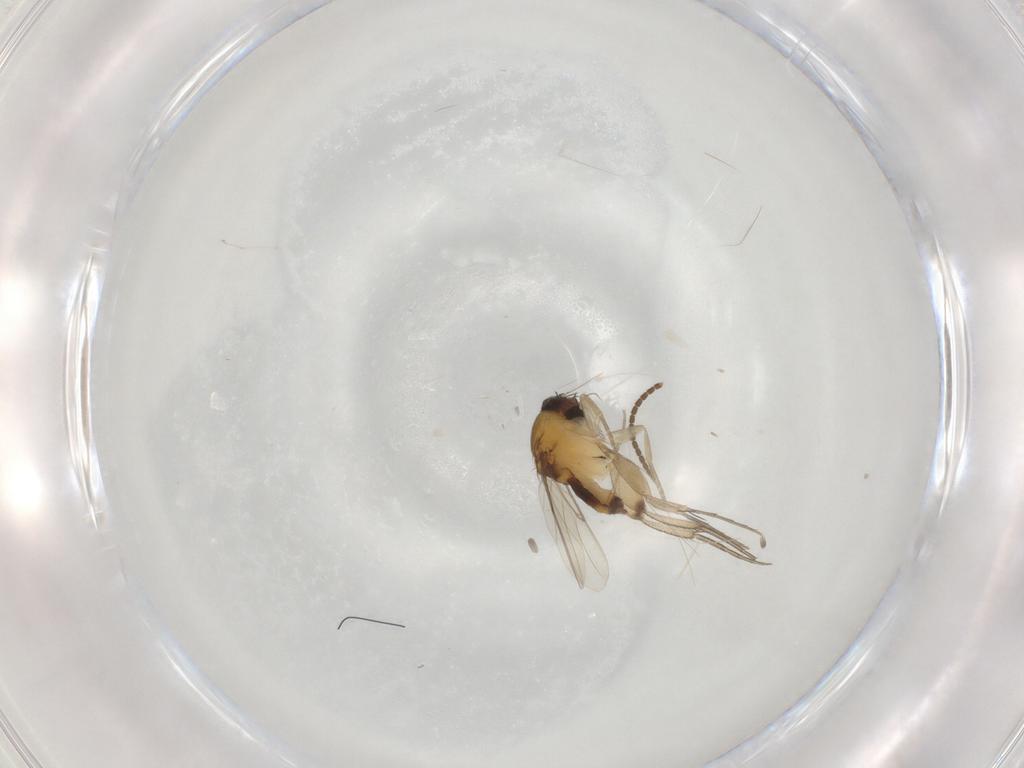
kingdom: Animalia
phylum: Arthropoda
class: Insecta
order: Diptera
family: Sciaridae
